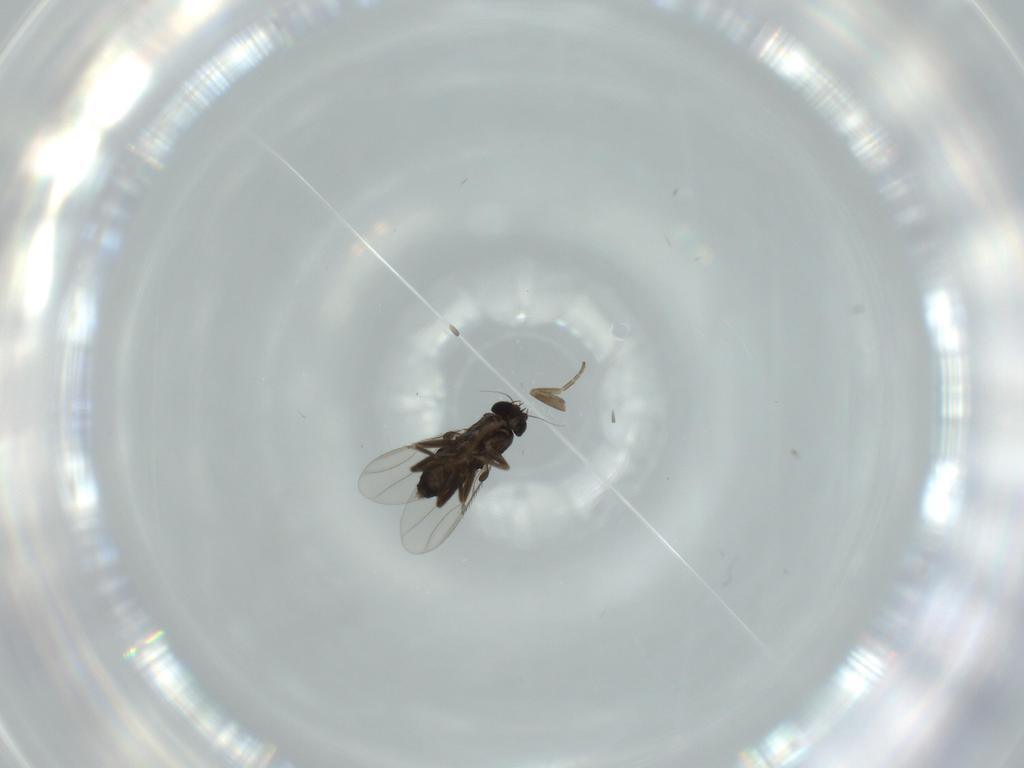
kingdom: Animalia
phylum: Arthropoda
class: Insecta
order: Diptera
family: Phoridae
